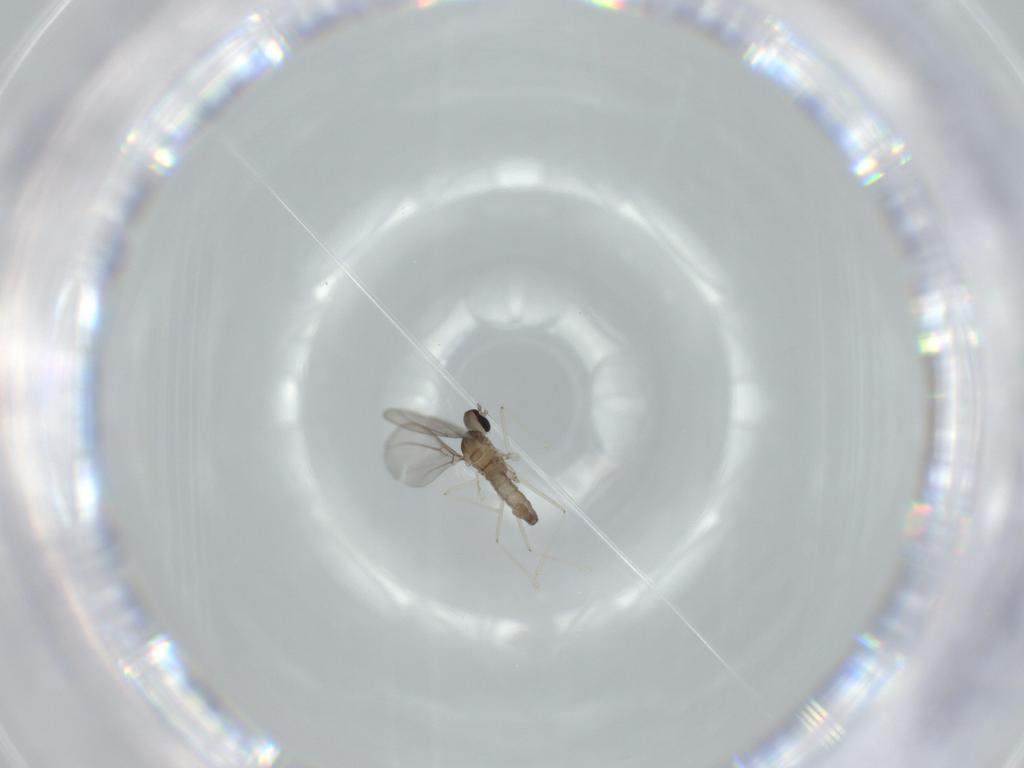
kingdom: Animalia
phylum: Arthropoda
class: Insecta
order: Diptera
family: Cecidomyiidae
